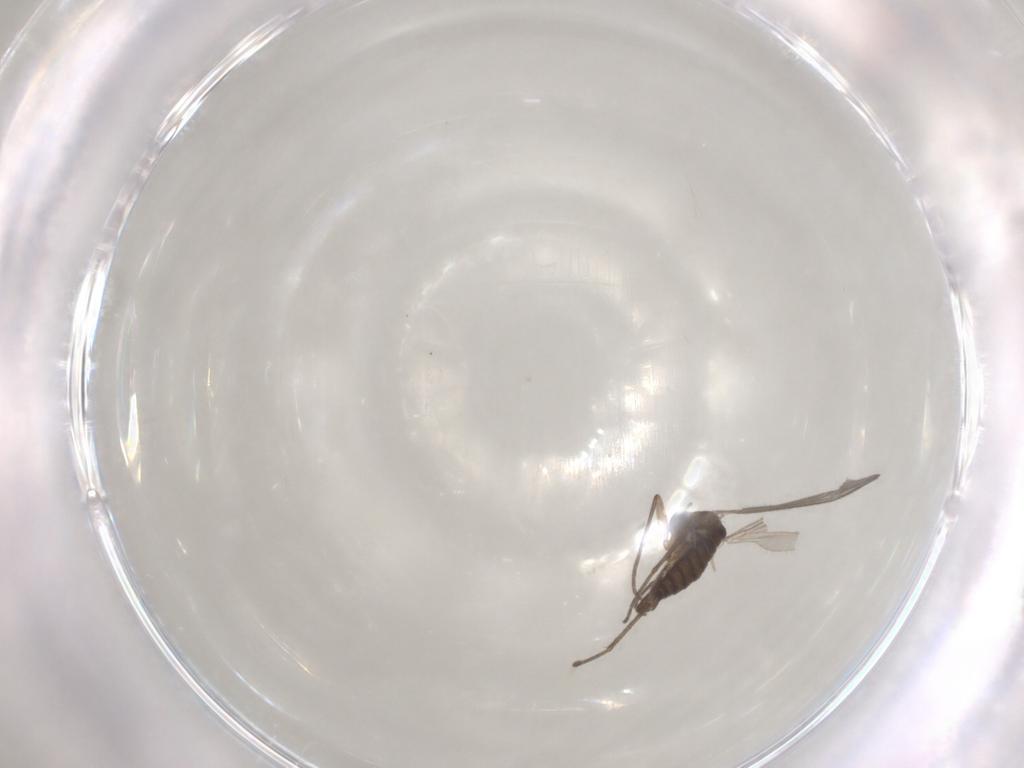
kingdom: Animalia
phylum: Arthropoda
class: Insecta
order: Diptera
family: Sciaridae
